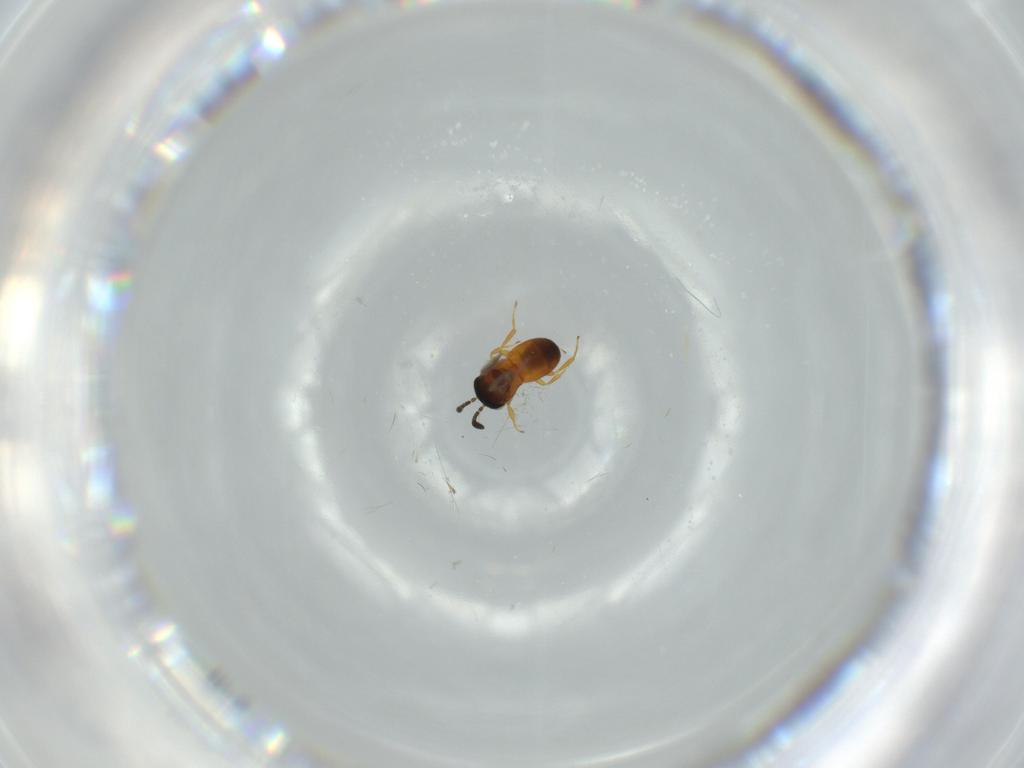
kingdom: Animalia
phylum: Arthropoda
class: Insecta
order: Hymenoptera
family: Scelionidae
